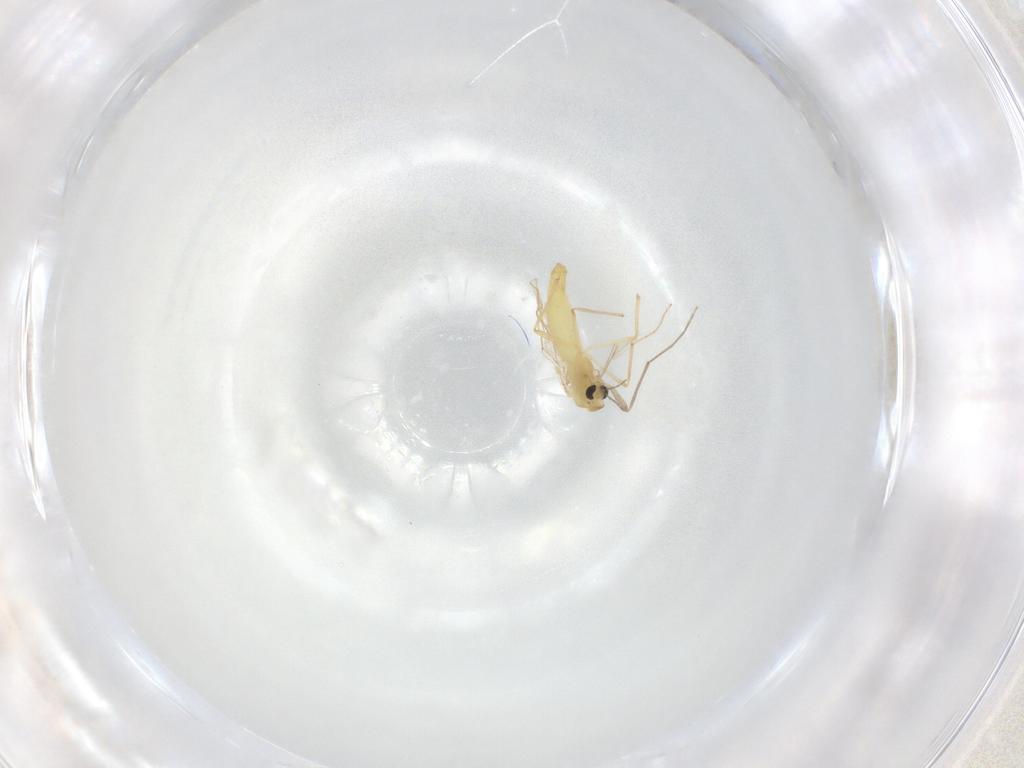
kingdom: Animalia
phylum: Arthropoda
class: Insecta
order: Diptera
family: Chironomidae
